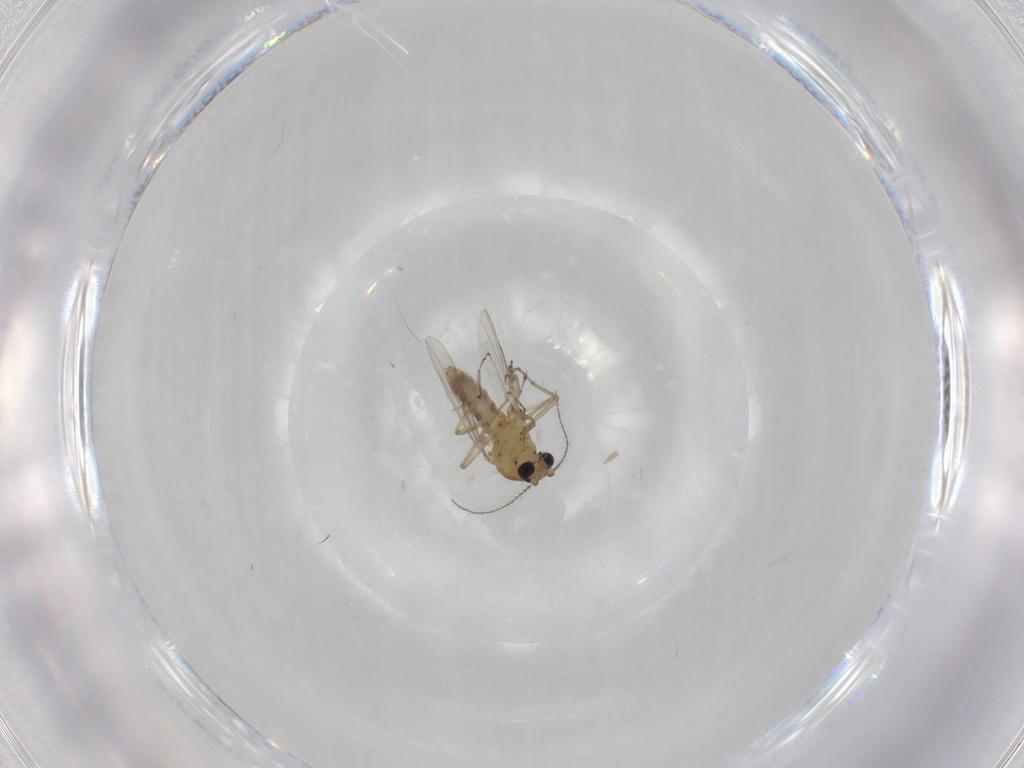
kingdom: Animalia
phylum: Arthropoda
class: Insecta
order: Diptera
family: Ceratopogonidae
